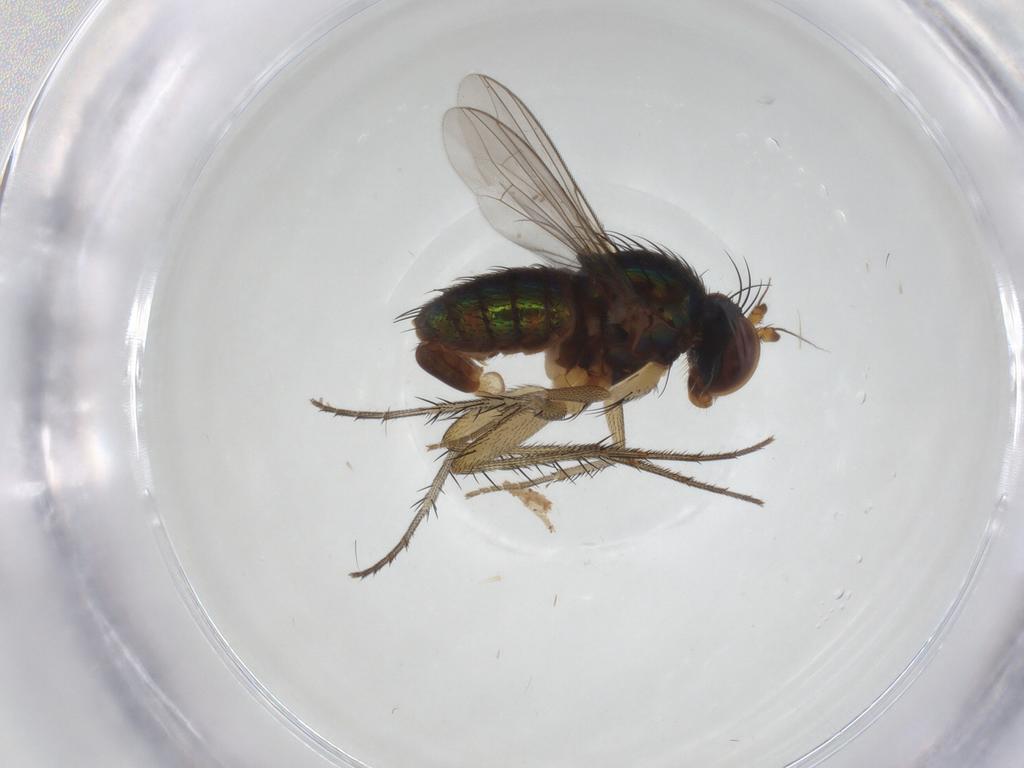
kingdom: Animalia
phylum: Arthropoda
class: Insecta
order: Diptera
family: Dolichopodidae
